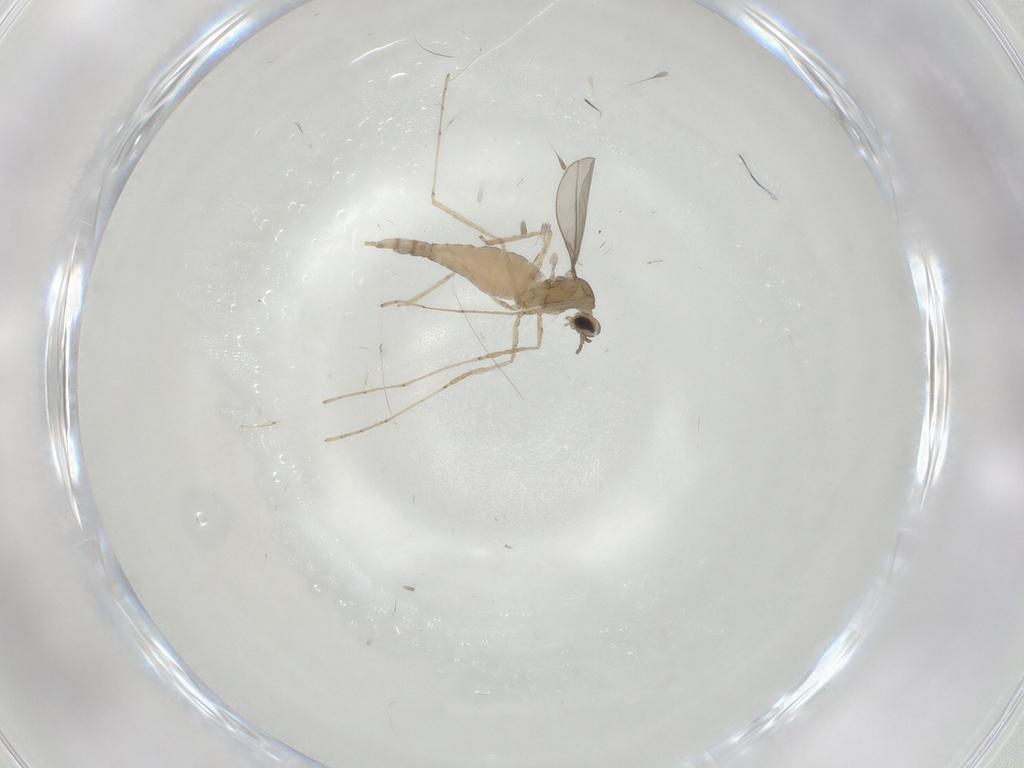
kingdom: Animalia
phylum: Arthropoda
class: Insecta
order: Diptera
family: Cecidomyiidae
